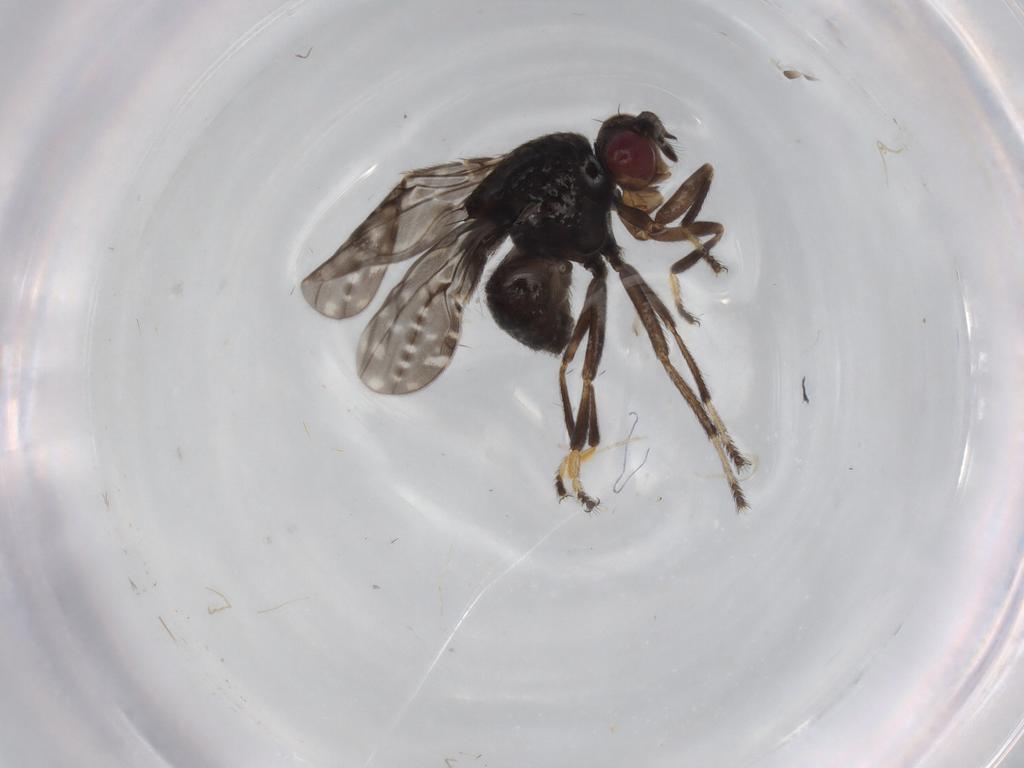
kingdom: Animalia
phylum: Arthropoda
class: Insecta
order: Diptera
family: Ephydridae
